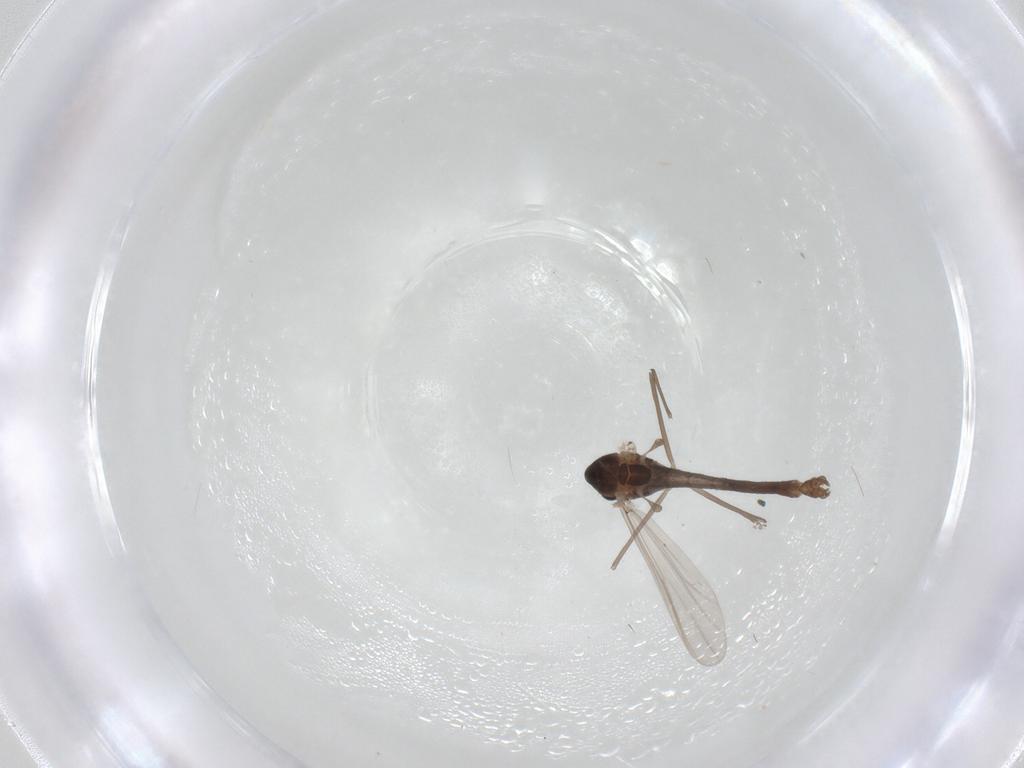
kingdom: Animalia
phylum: Arthropoda
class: Insecta
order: Diptera
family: Chironomidae
